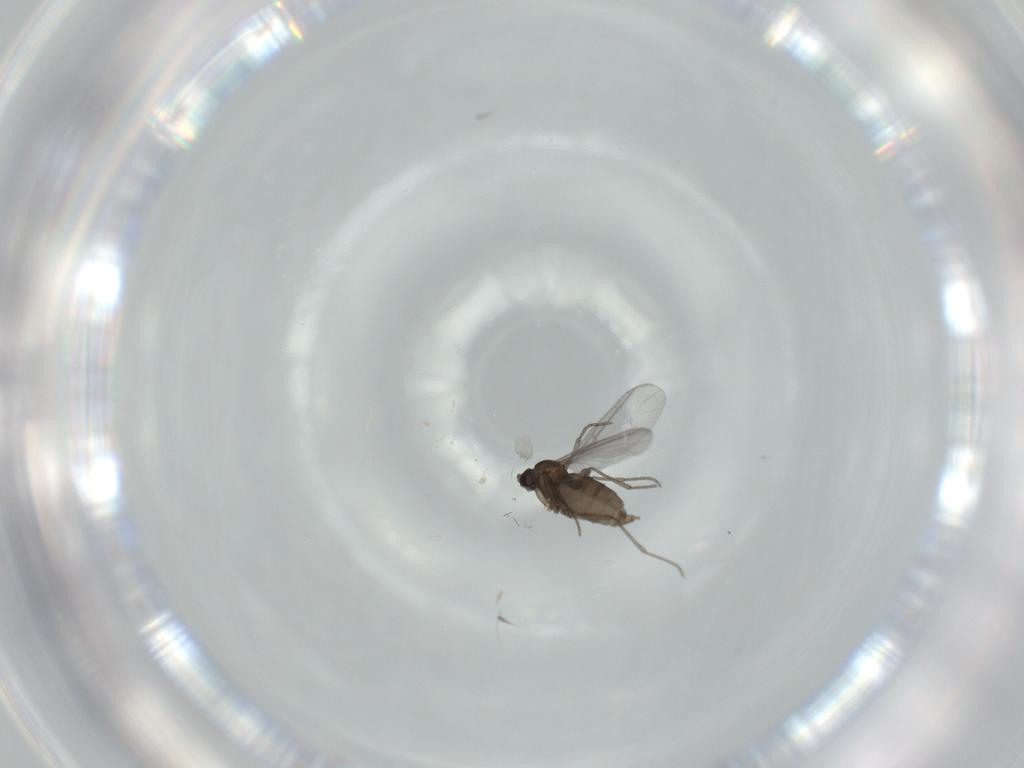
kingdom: Animalia
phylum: Arthropoda
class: Insecta
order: Diptera
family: Sciaridae
